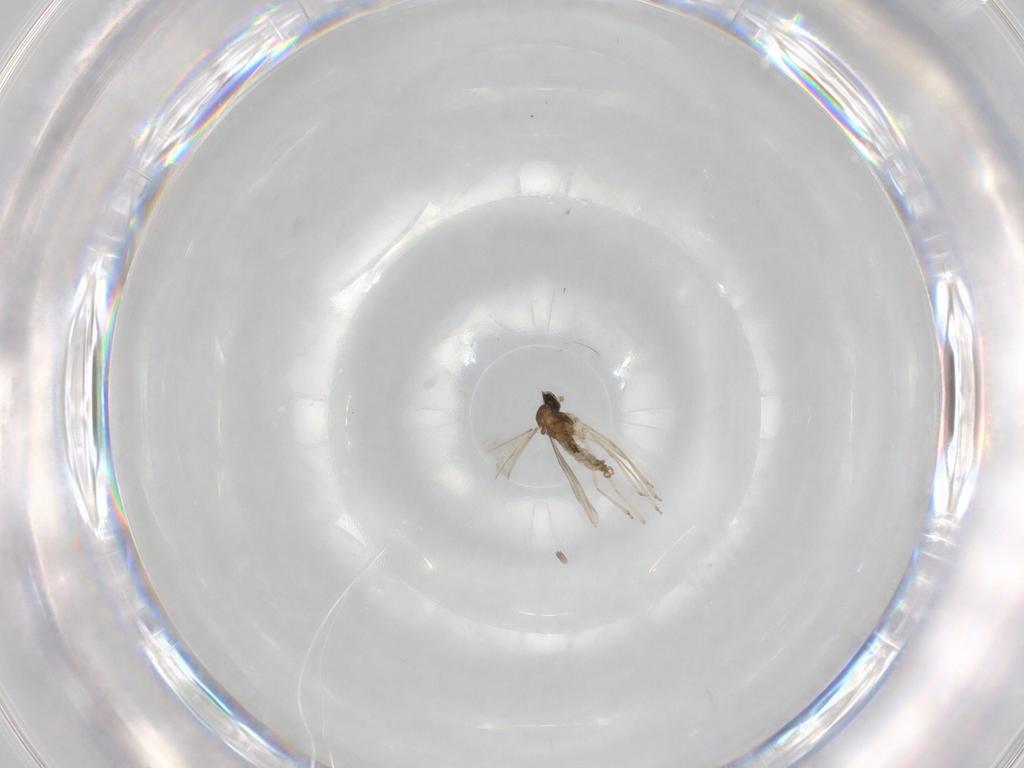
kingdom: Animalia
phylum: Arthropoda
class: Insecta
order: Diptera
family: Cecidomyiidae
